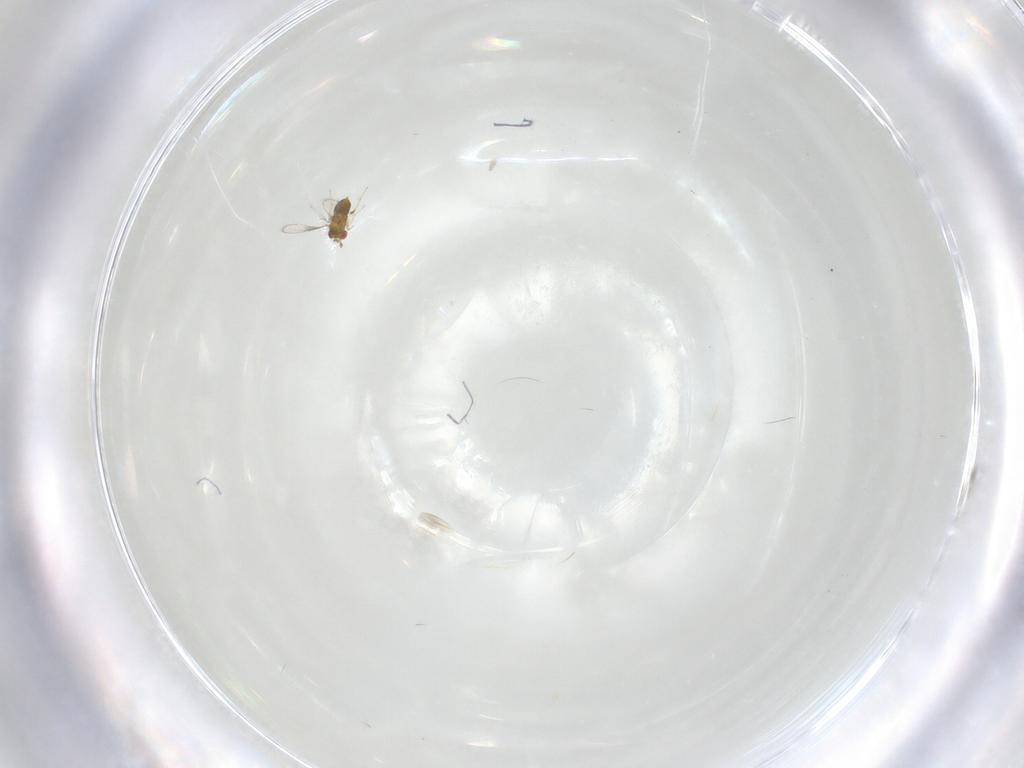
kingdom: Animalia
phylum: Arthropoda
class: Insecta
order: Hymenoptera
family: Trichogrammatidae
